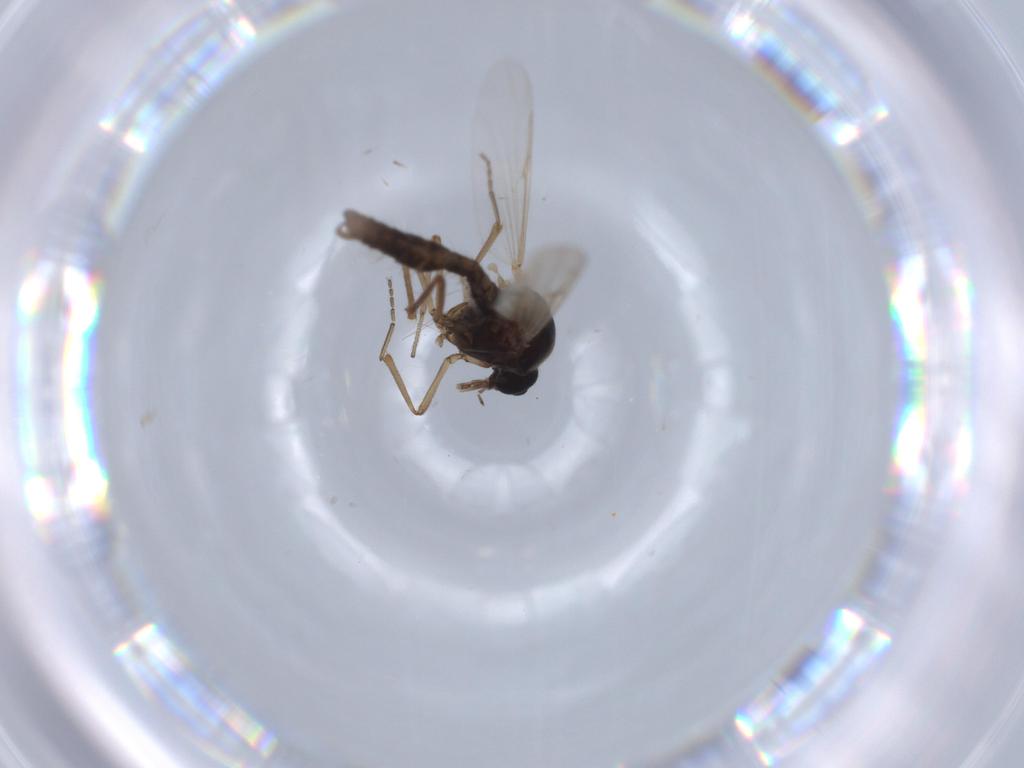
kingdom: Animalia
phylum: Arthropoda
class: Insecta
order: Diptera
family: Ceratopogonidae
